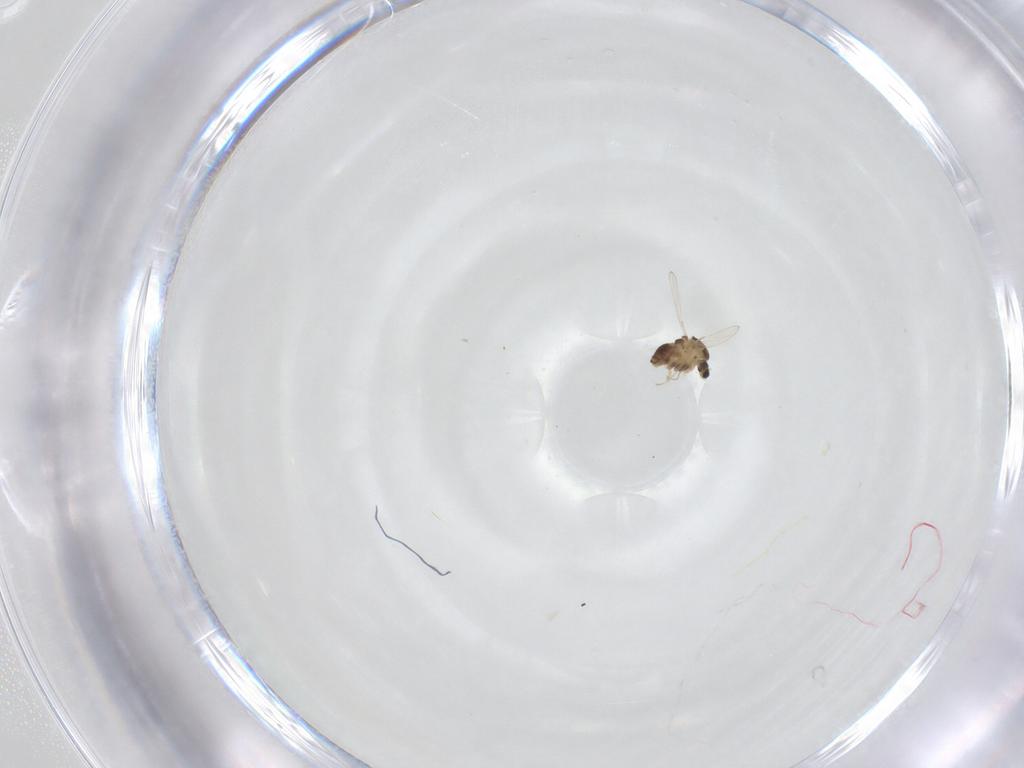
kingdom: Animalia
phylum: Arthropoda
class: Insecta
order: Diptera
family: Chironomidae
